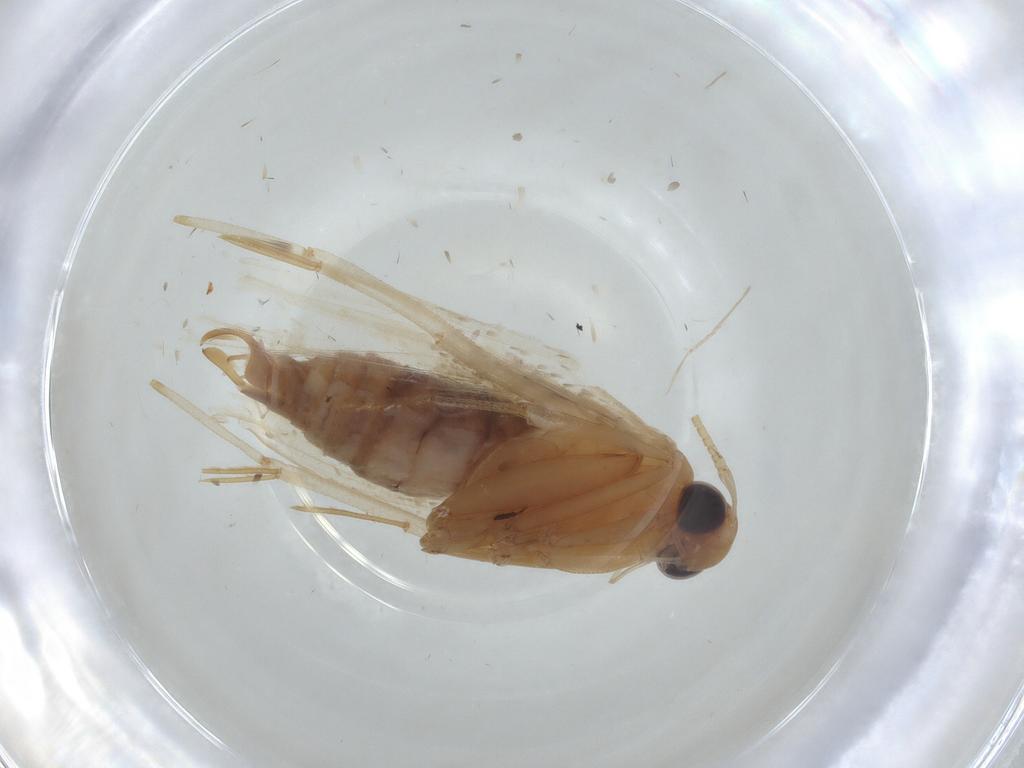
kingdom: Animalia
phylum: Arthropoda
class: Insecta
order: Lepidoptera
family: Lecithoceridae
